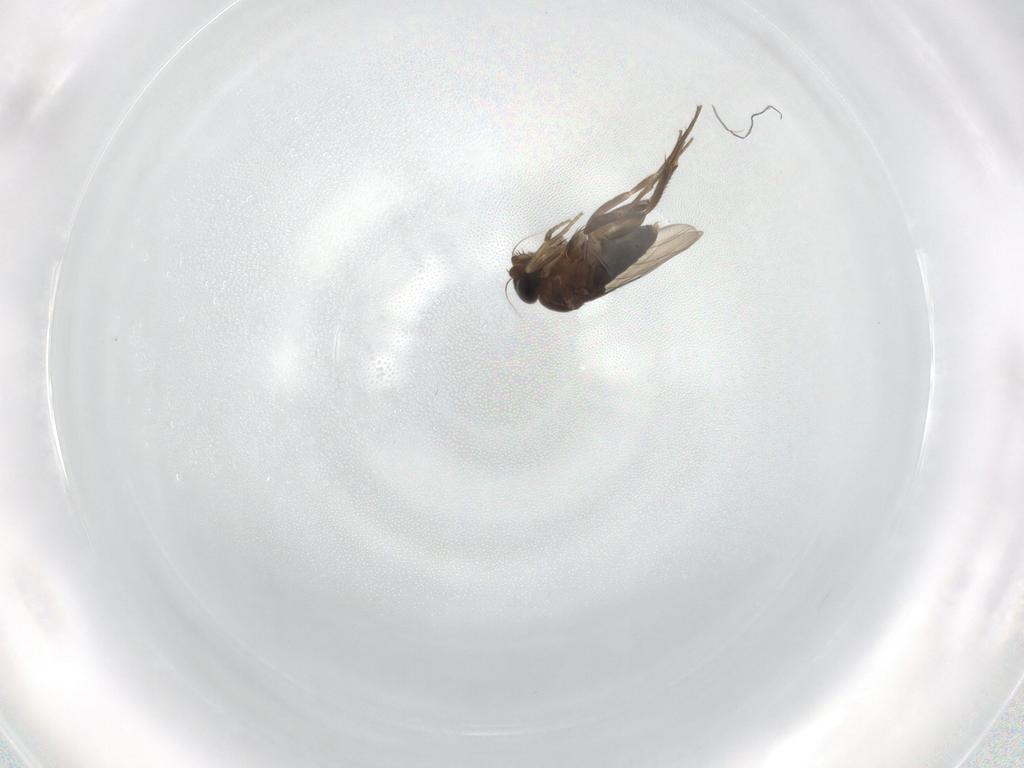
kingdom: Animalia
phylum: Arthropoda
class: Insecta
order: Diptera
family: Phoridae
